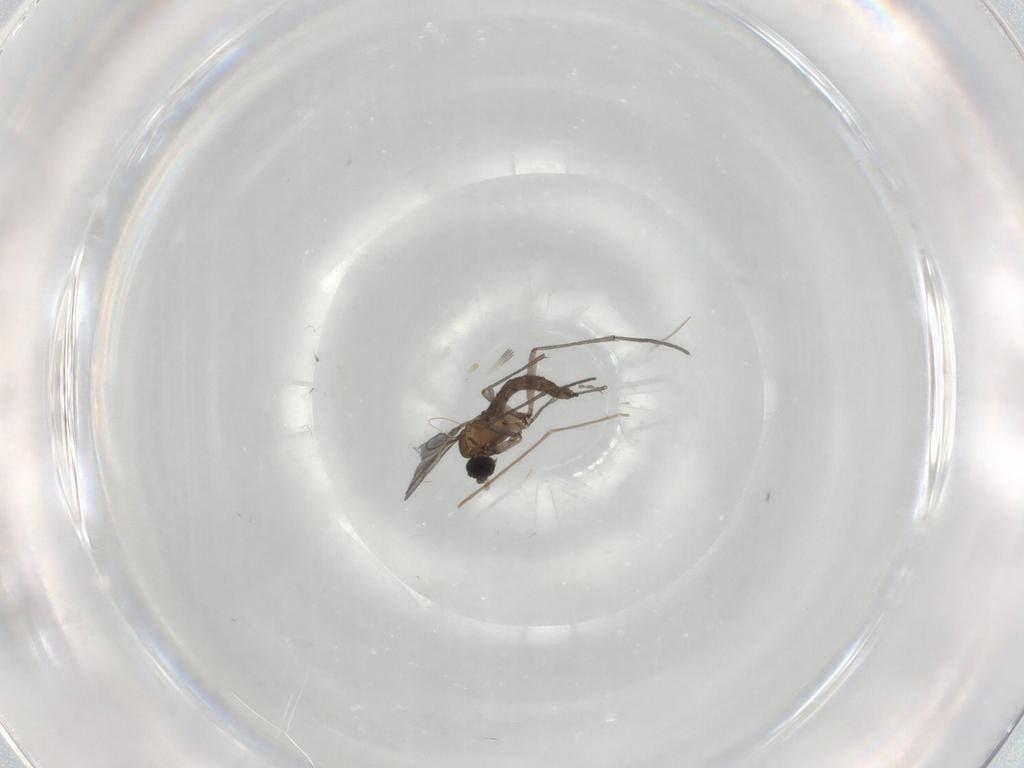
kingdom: Animalia
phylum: Arthropoda
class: Insecta
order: Diptera
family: Sciaridae
